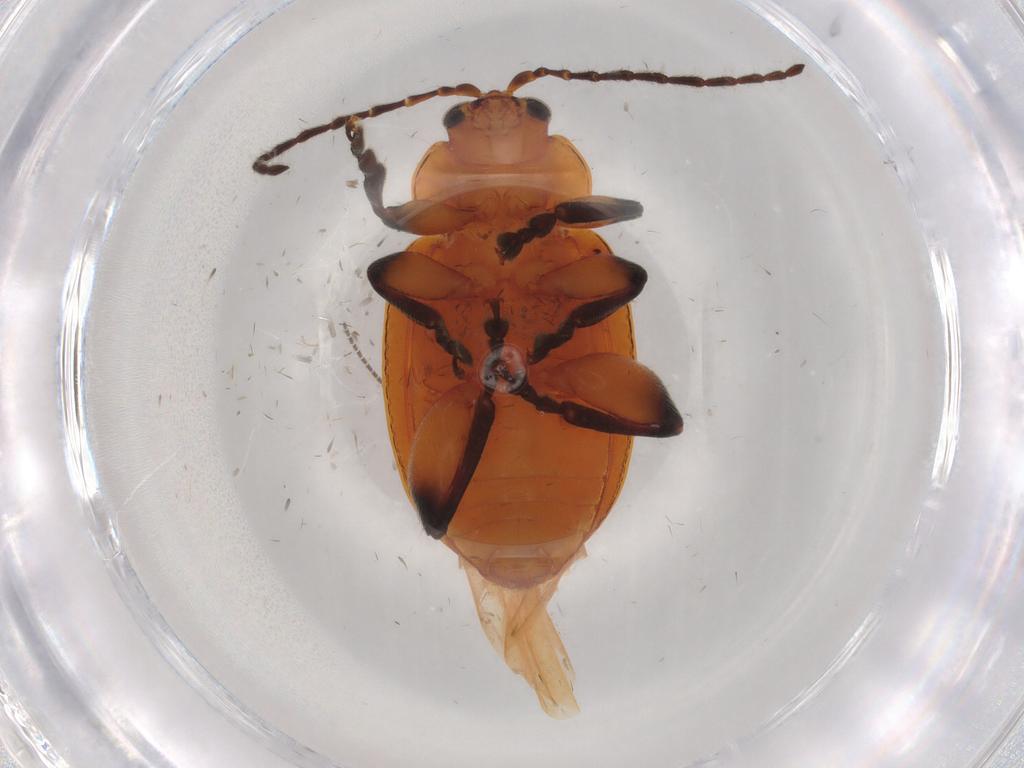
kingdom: Animalia
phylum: Arthropoda
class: Insecta
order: Coleoptera
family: Chrysomelidae
